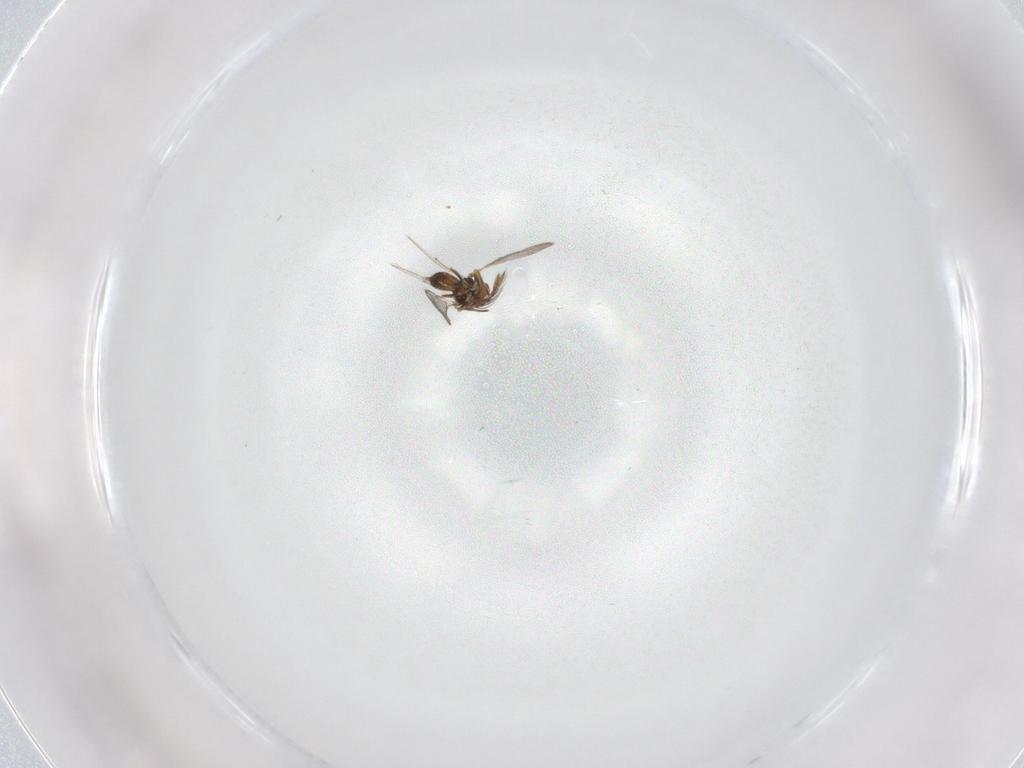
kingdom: Animalia
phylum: Arthropoda
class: Insecta
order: Hymenoptera
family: Eulophidae
